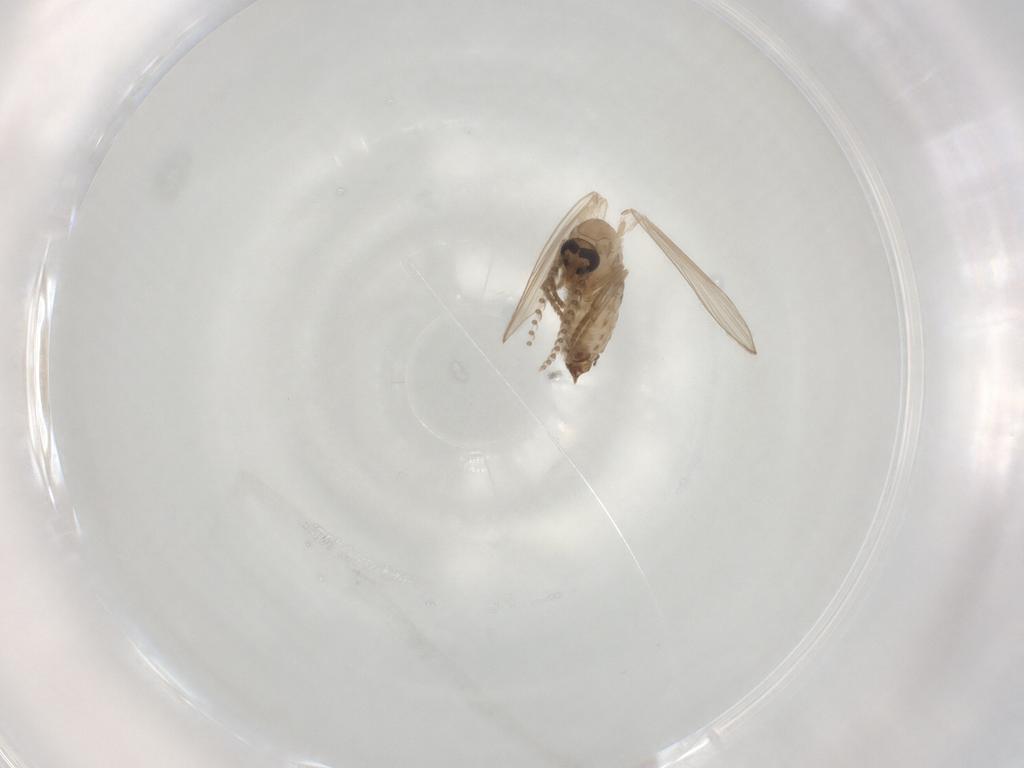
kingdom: Animalia
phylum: Arthropoda
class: Insecta
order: Diptera
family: Psychodidae
